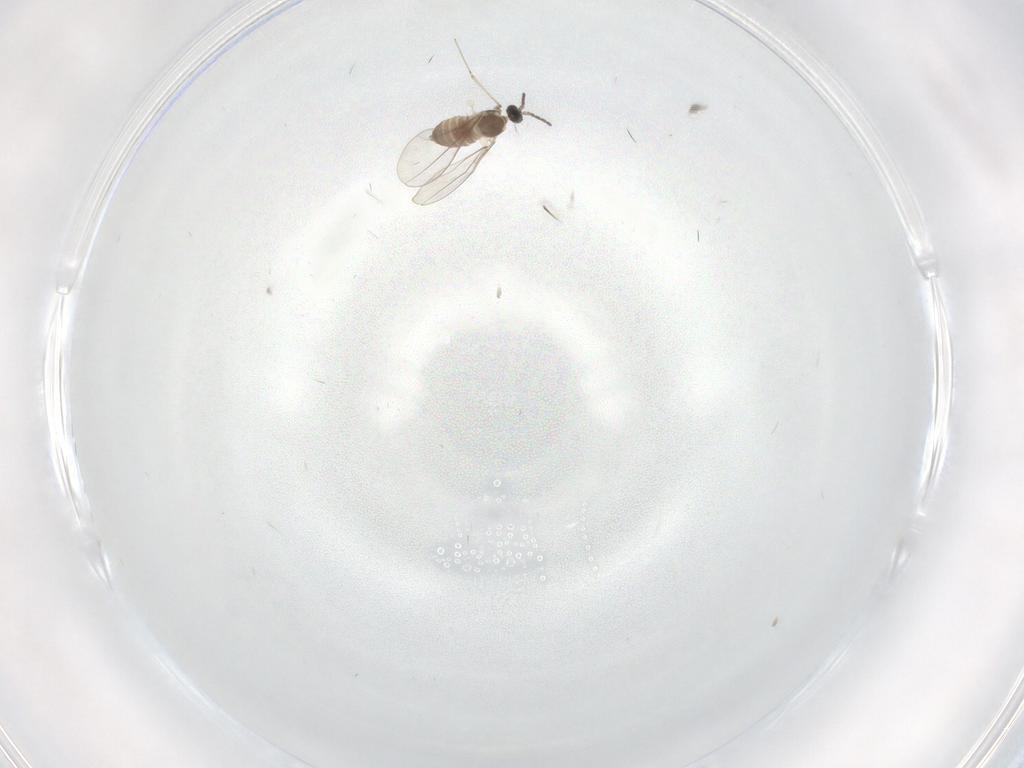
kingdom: Animalia
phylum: Arthropoda
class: Insecta
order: Diptera
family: Cecidomyiidae
